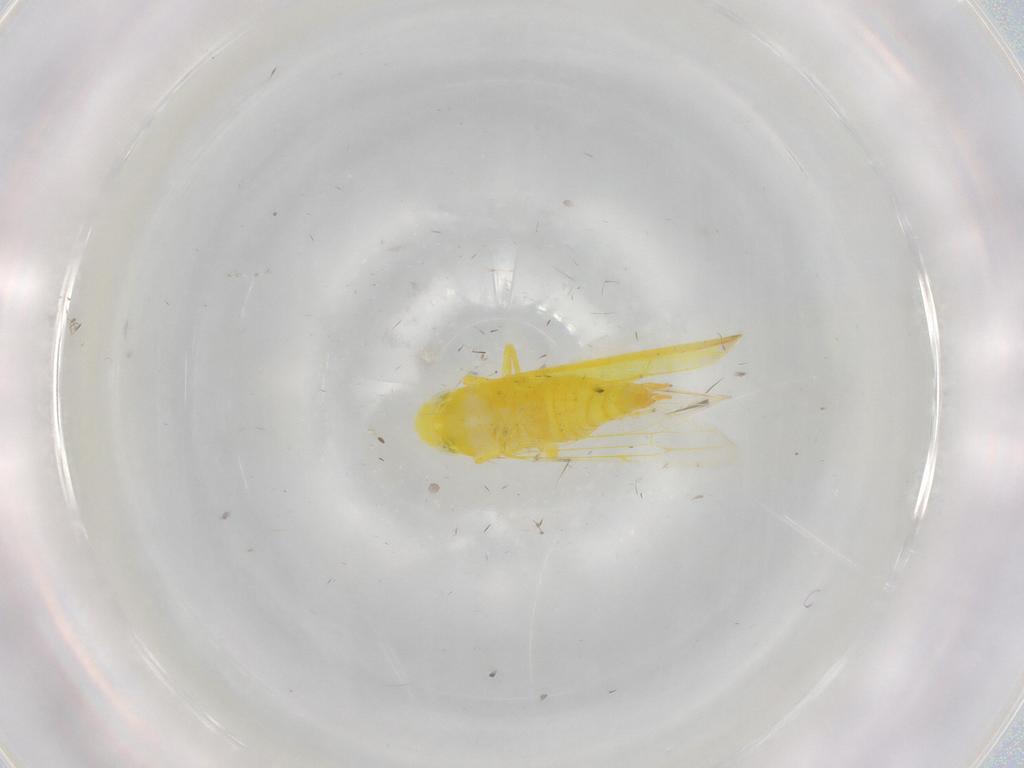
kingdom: Animalia
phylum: Arthropoda
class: Insecta
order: Hemiptera
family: Cicadellidae
